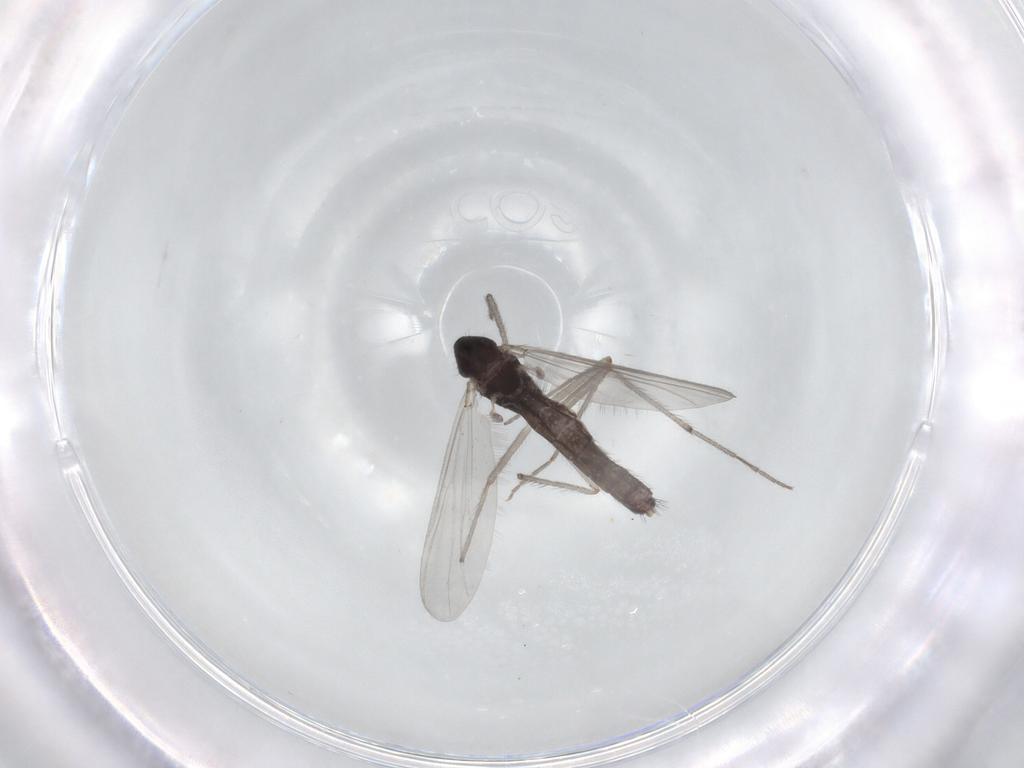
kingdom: Animalia
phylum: Arthropoda
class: Insecta
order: Diptera
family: Chironomidae
